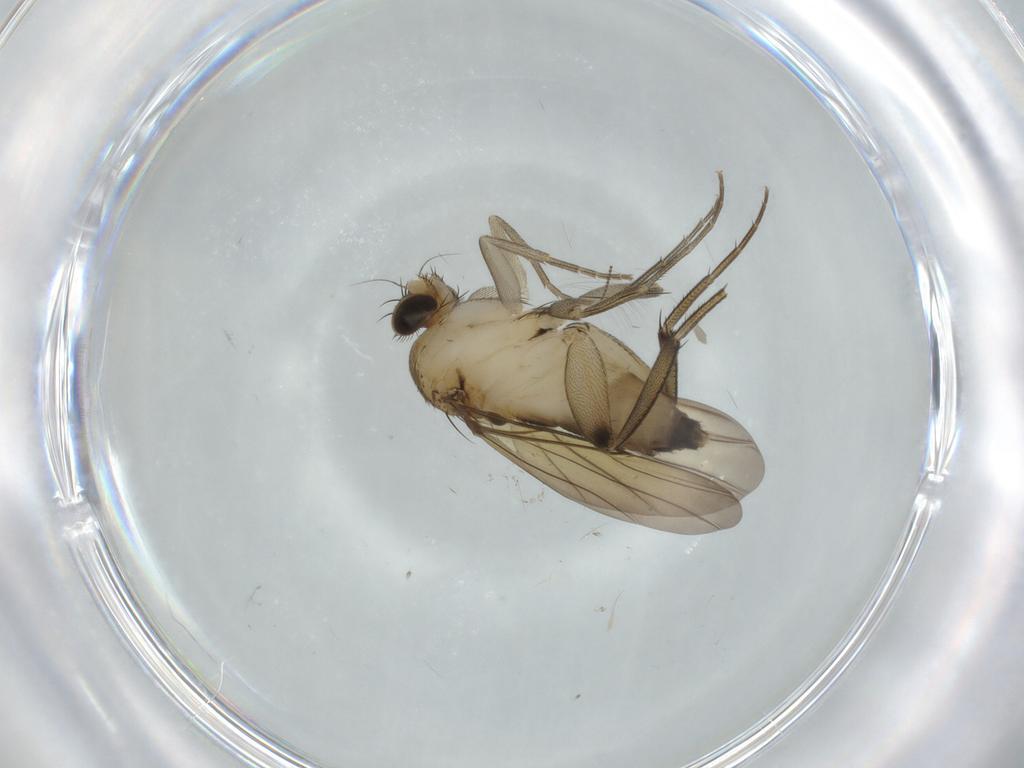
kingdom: Animalia
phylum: Arthropoda
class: Insecta
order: Diptera
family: Phoridae
